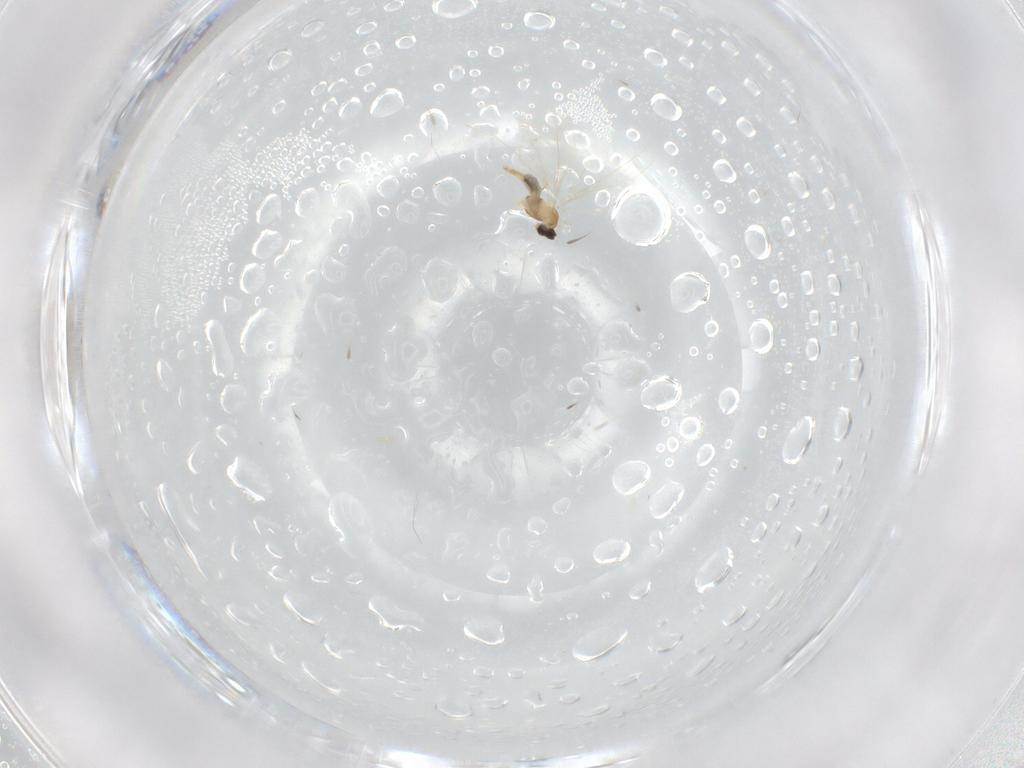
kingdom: Animalia
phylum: Arthropoda
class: Insecta
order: Diptera
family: Cecidomyiidae
